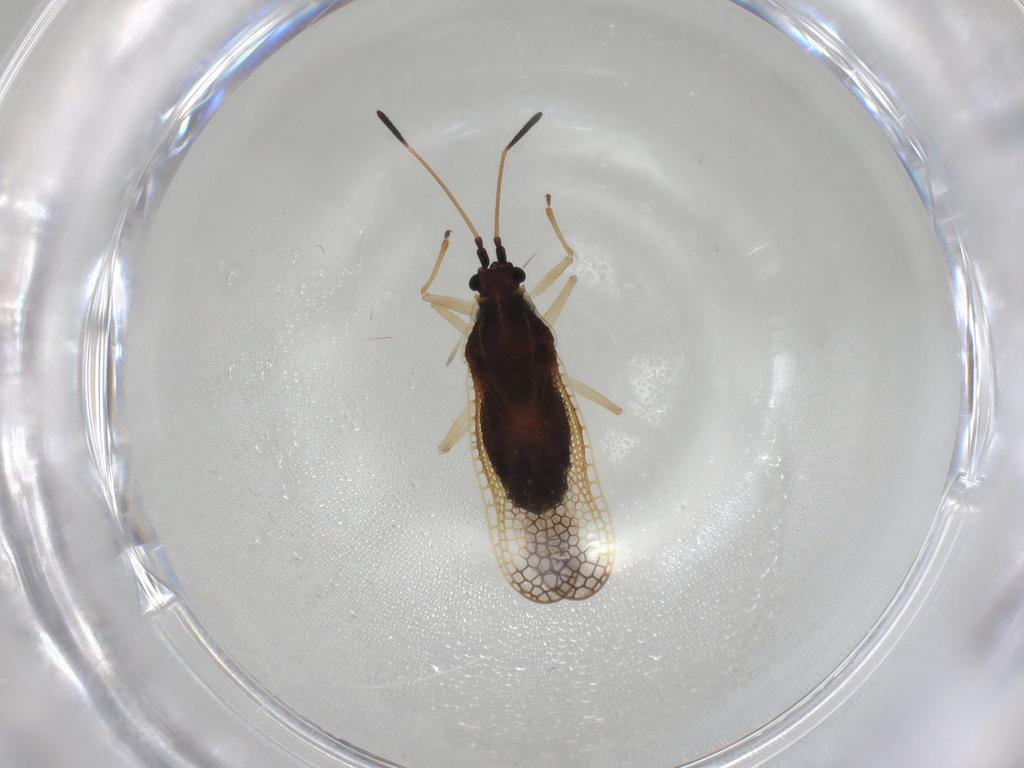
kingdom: Animalia
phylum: Arthropoda
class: Insecta
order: Hemiptera
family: Tingidae
